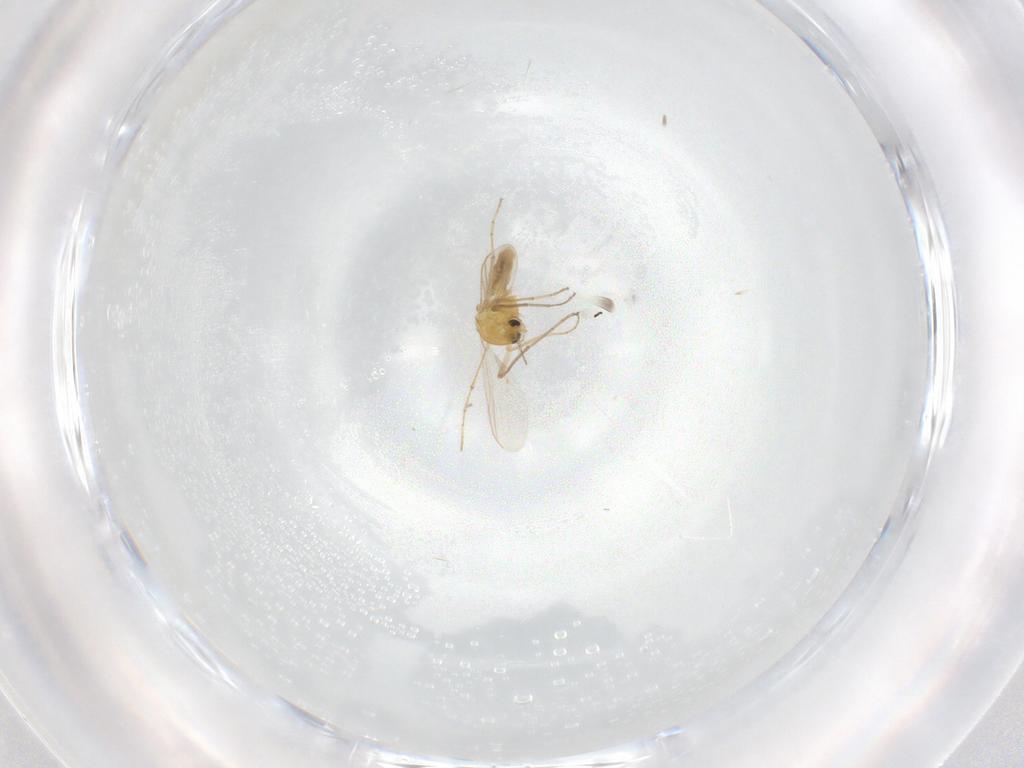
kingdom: Animalia
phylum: Arthropoda
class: Insecta
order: Diptera
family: Chironomidae
